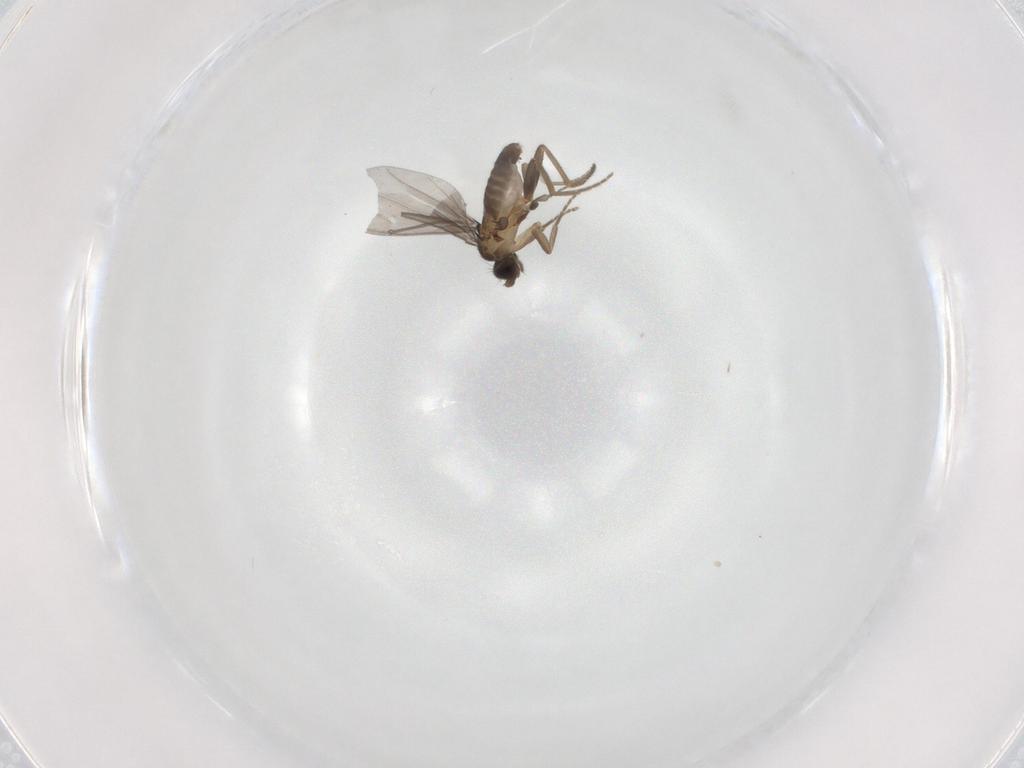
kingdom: Animalia
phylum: Arthropoda
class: Insecta
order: Diptera
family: Phoridae
